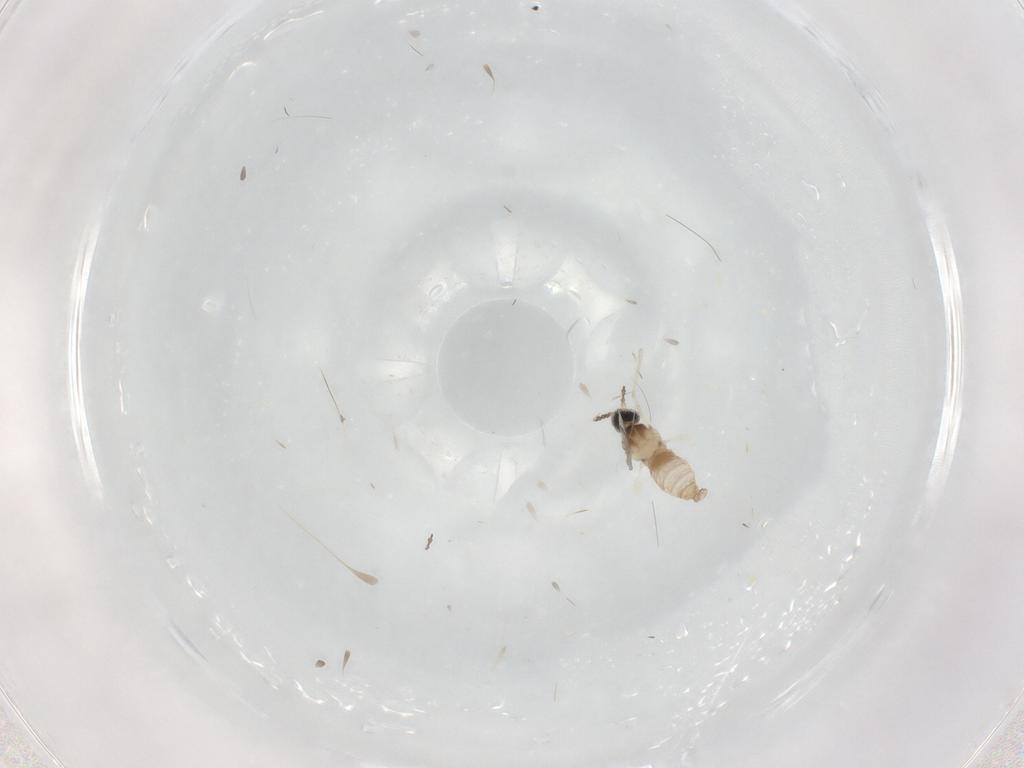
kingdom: Animalia
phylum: Arthropoda
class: Insecta
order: Diptera
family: Cecidomyiidae
